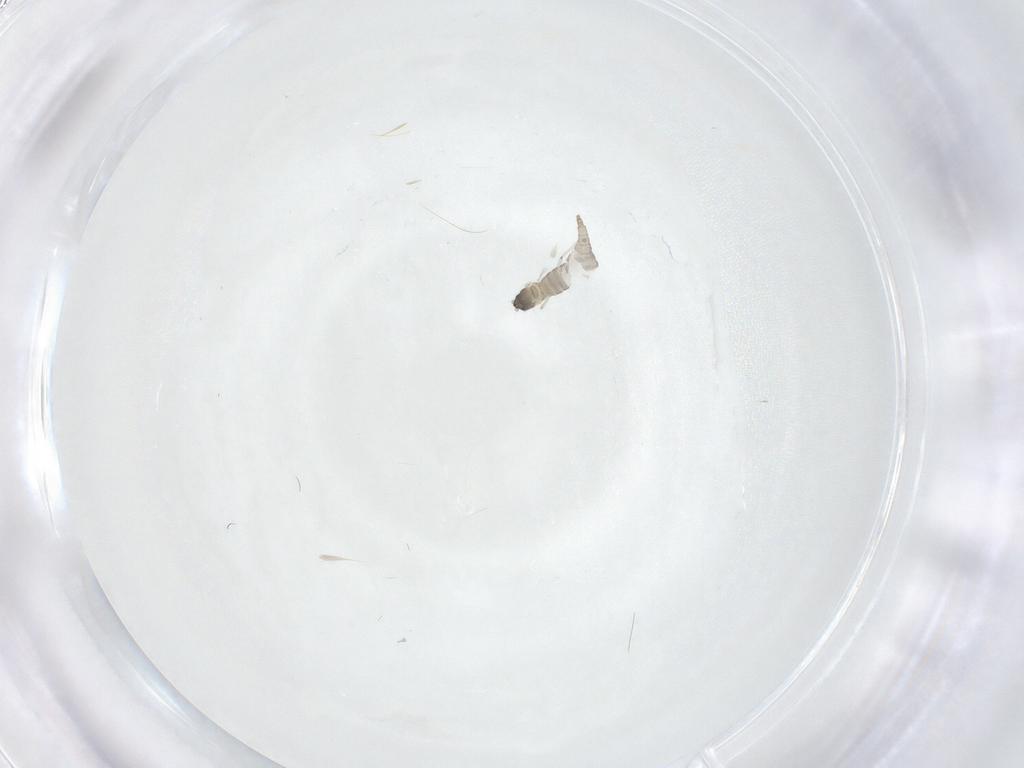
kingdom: Animalia
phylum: Arthropoda
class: Insecta
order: Diptera
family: Cecidomyiidae
